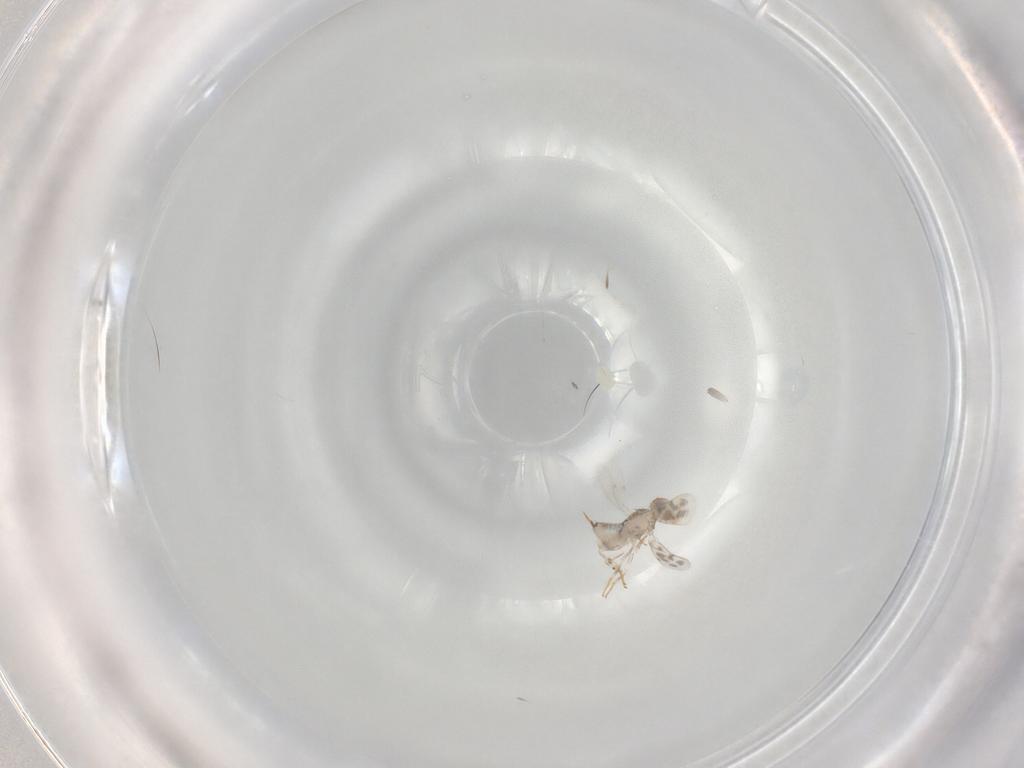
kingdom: Animalia
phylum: Arthropoda
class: Insecta
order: Hymenoptera
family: Aphelinidae
